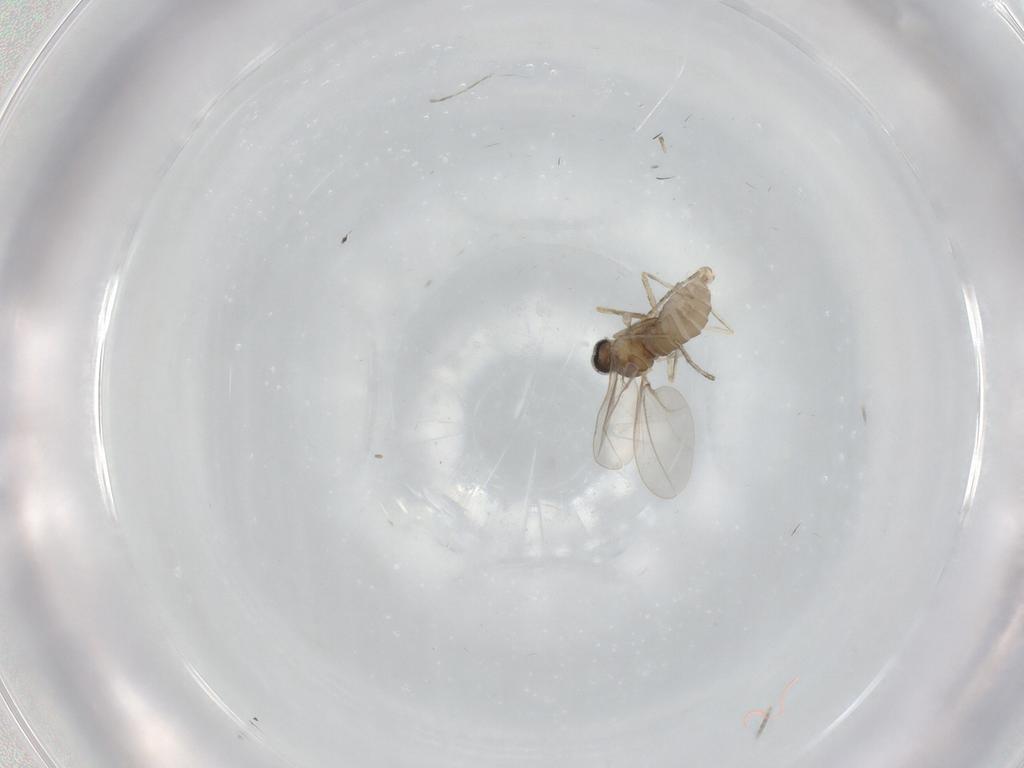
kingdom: Animalia
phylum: Arthropoda
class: Insecta
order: Diptera
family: Cecidomyiidae
